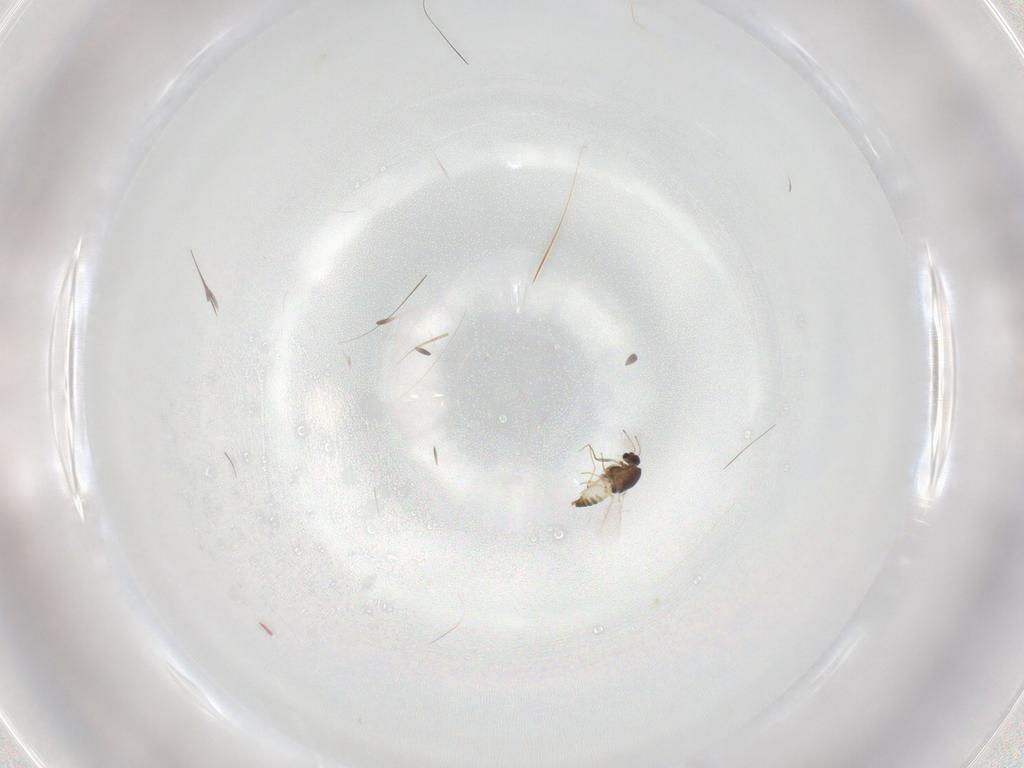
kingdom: Animalia
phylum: Arthropoda
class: Insecta
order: Diptera
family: Chironomidae
